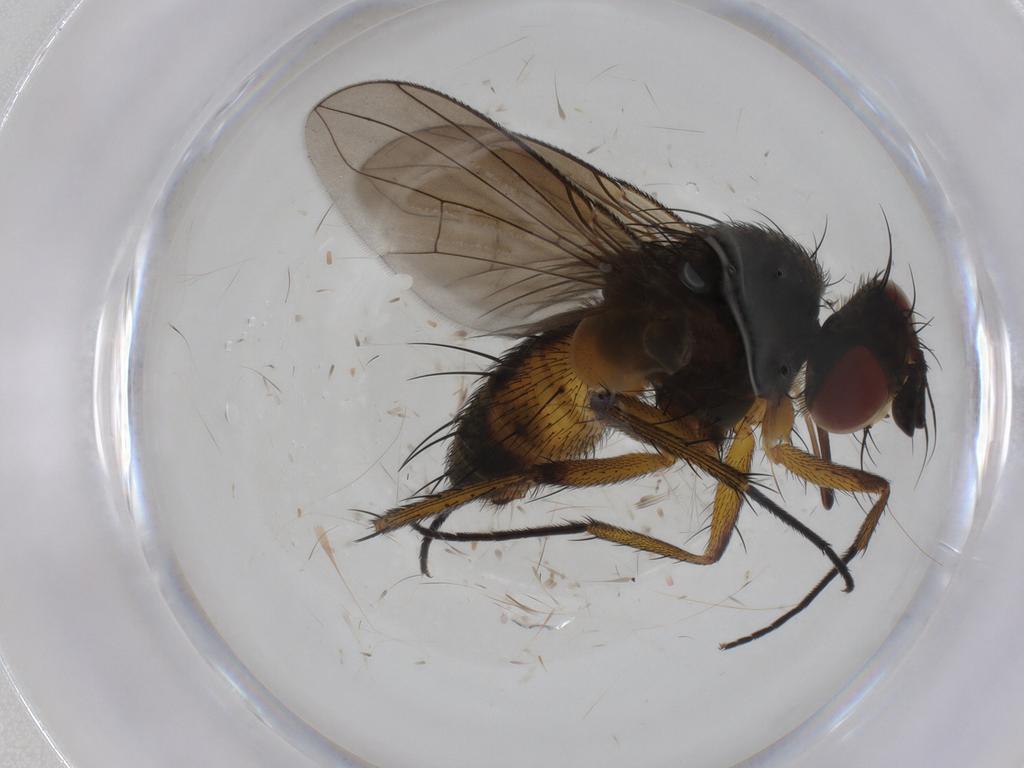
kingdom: Animalia
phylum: Arthropoda
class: Insecta
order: Diptera
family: Tachinidae
